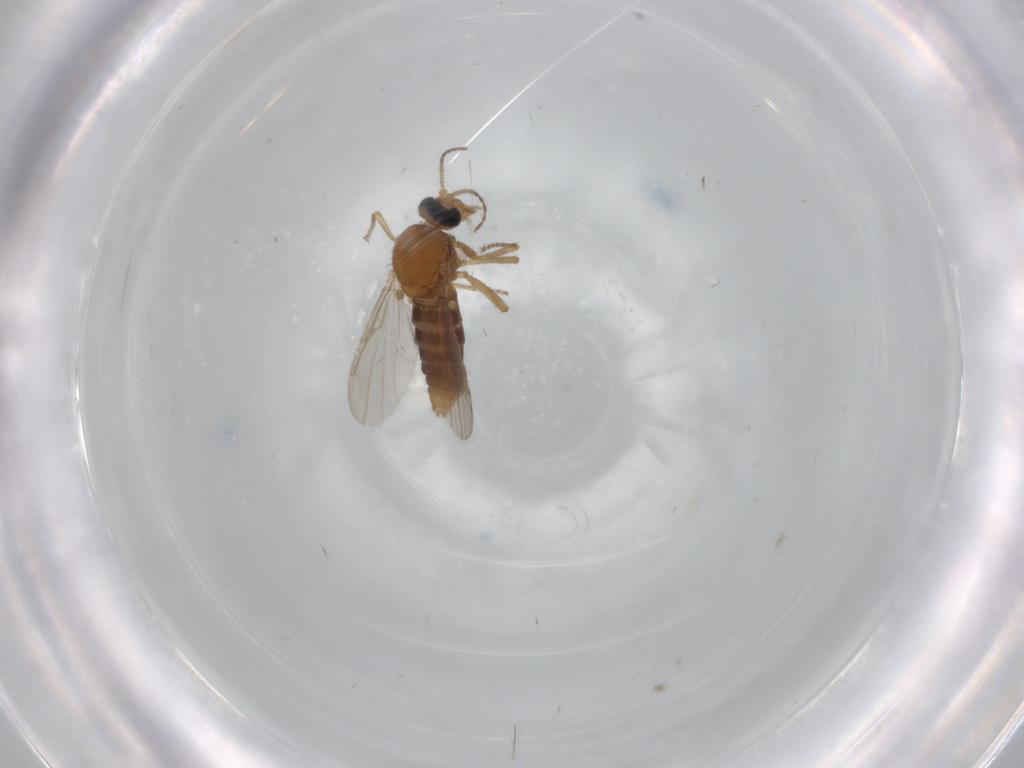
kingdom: Animalia
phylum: Arthropoda
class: Insecta
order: Diptera
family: Ceratopogonidae
